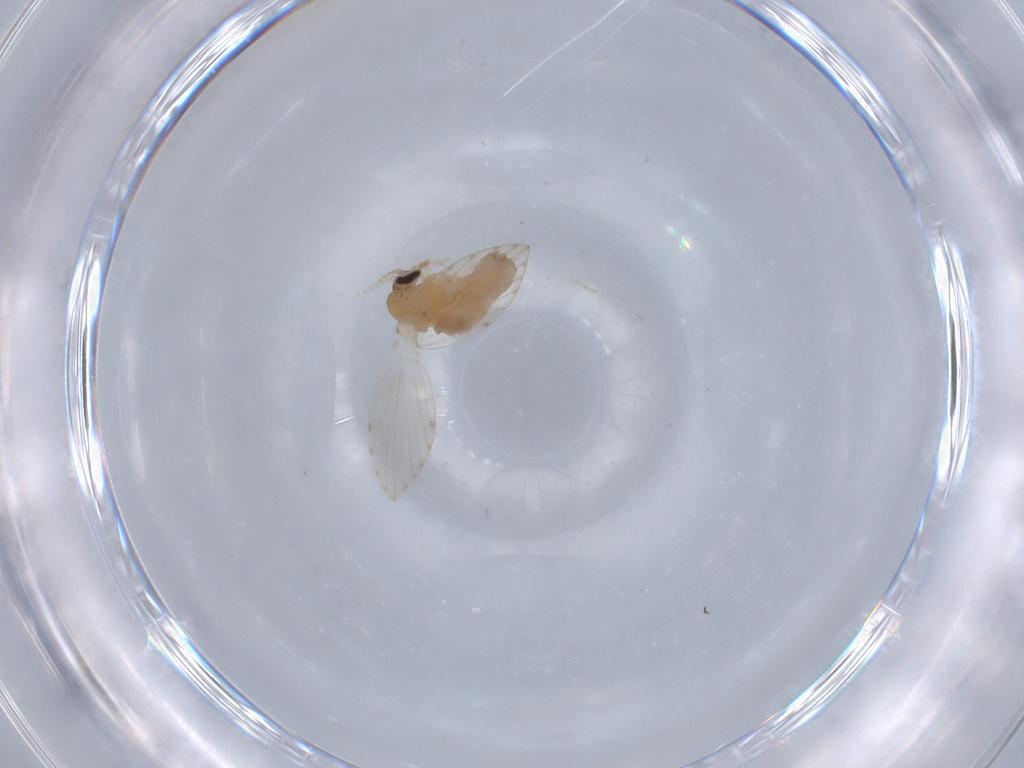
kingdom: Animalia
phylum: Arthropoda
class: Insecta
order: Diptera
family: Psychodidae
